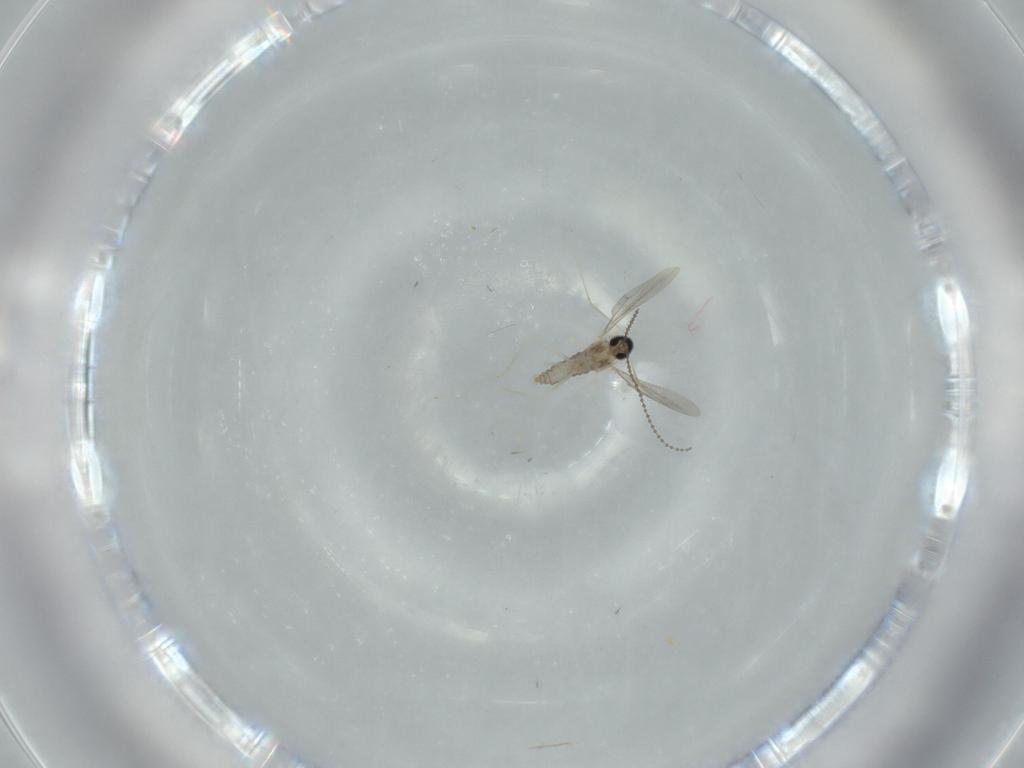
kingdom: Animalia
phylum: Arthropoda
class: Insecta
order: Diptera
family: Cecidomyiidae
